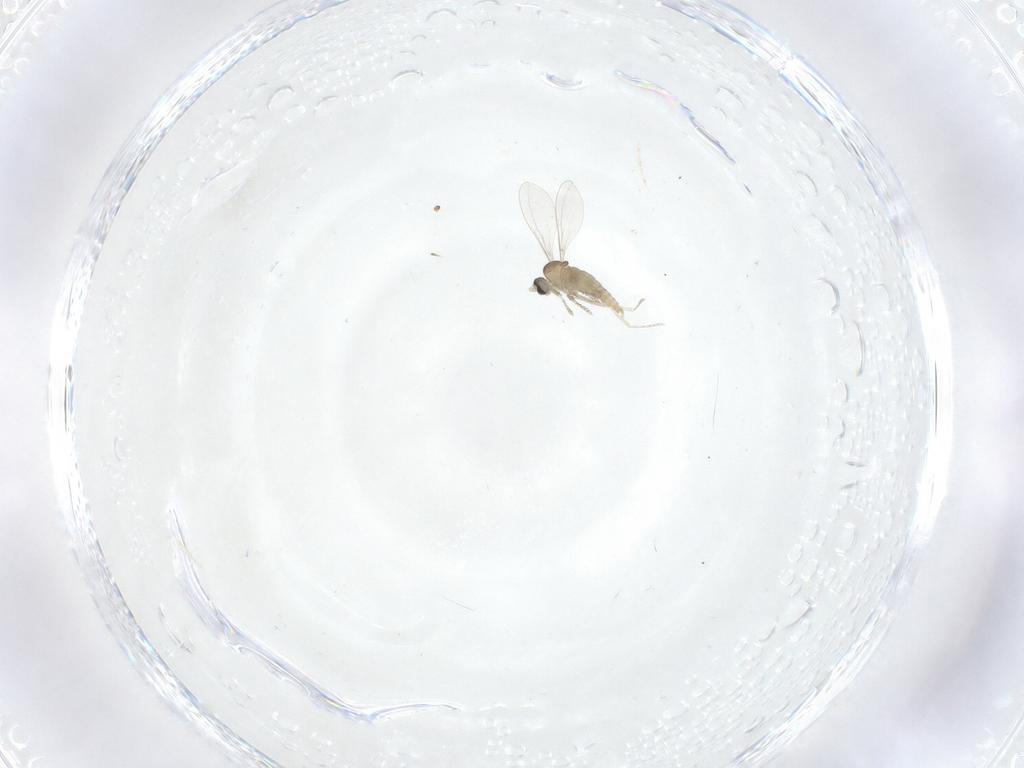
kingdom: Animalia
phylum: Arthropoda
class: Insecta
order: Diptera
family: Cecidomyiidae
